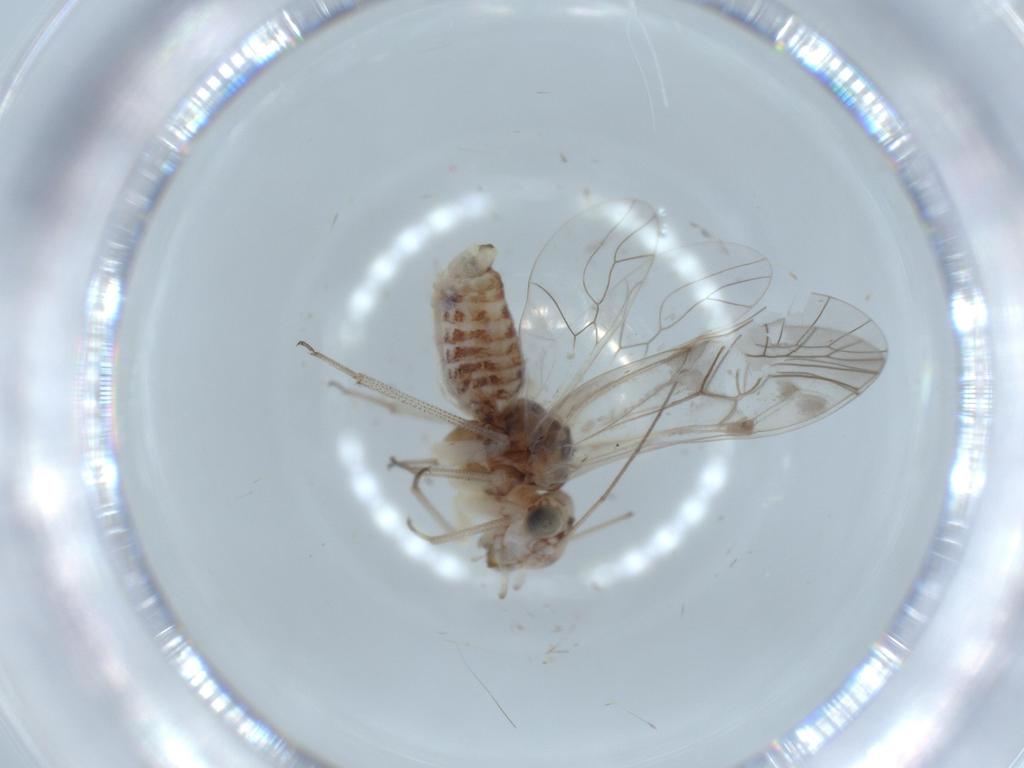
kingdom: Animalia
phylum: Arthropoda
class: Insecta
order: Psocodea
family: Lepidopsocidae
